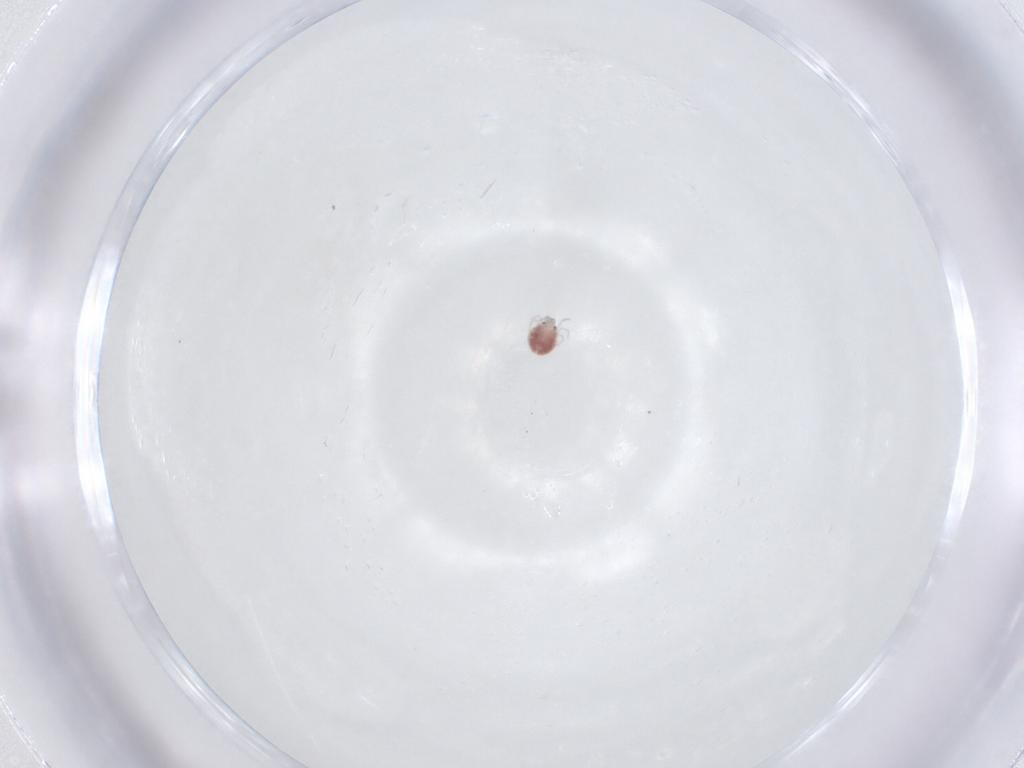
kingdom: Animalia
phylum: Arthropoda
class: Arachnida
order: Trombidiformes
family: Pionidae
